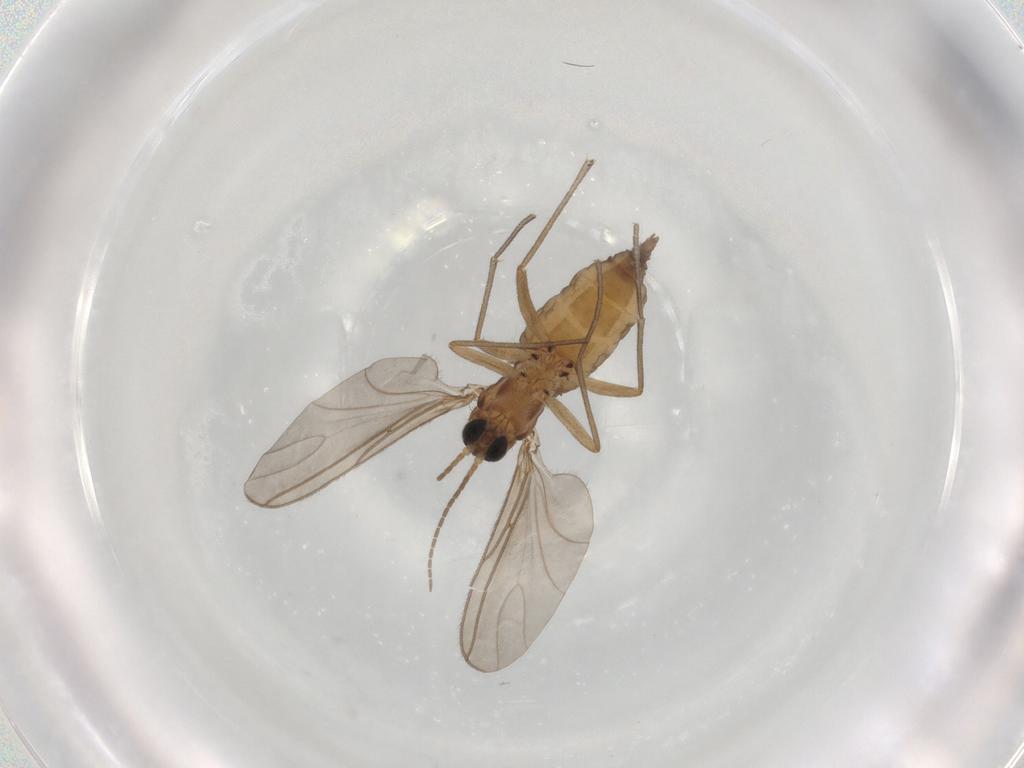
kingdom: Animalia
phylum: Arthropoda
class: Insecta
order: Diptera
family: Sciaridae
